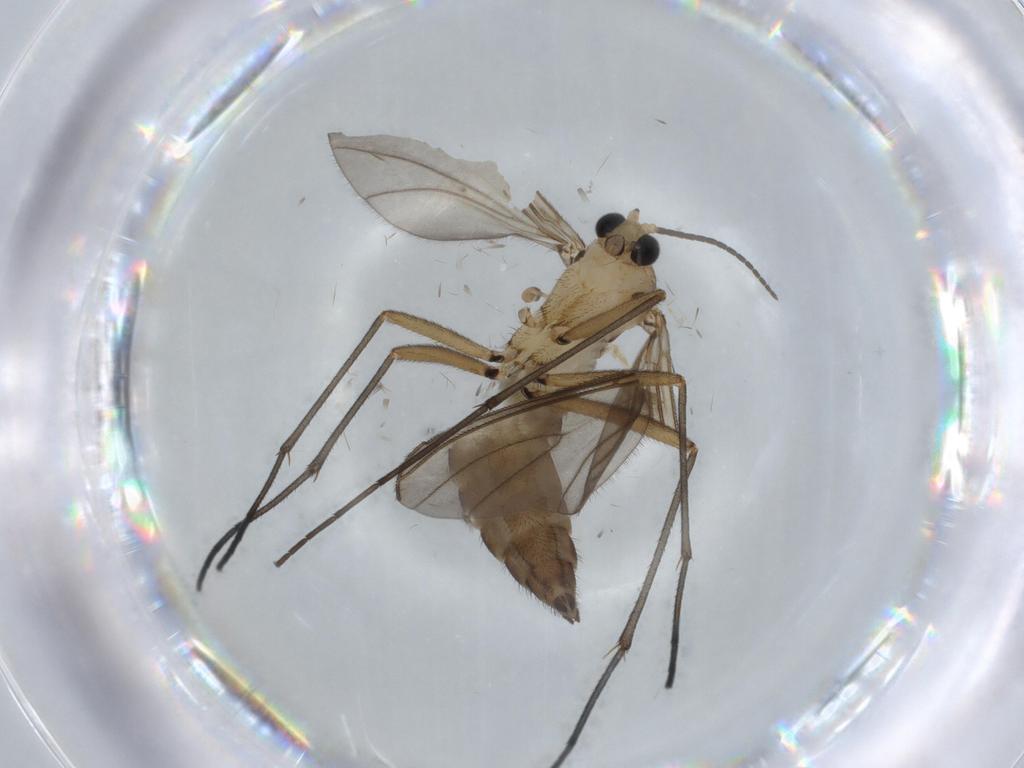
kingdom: Animalia
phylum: Arthropoda
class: Insecta
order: Diptera
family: Sciaridae
